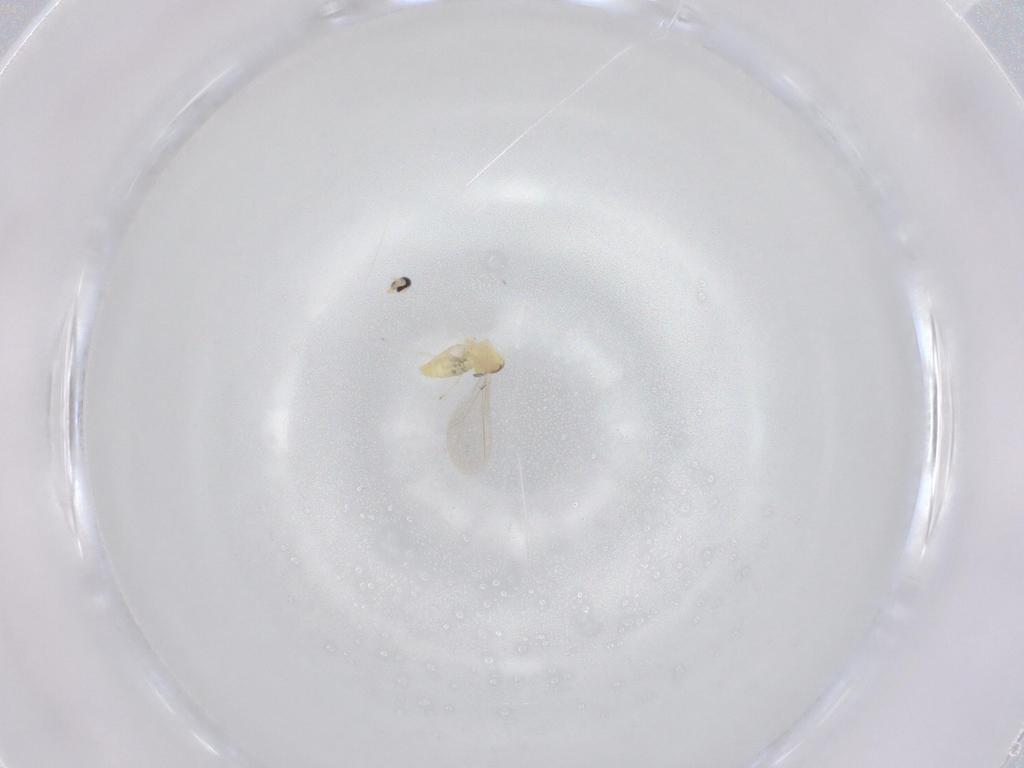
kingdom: Animalia
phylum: Arthropoda
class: Insecta
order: Diptera
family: Cecidomyiidae
